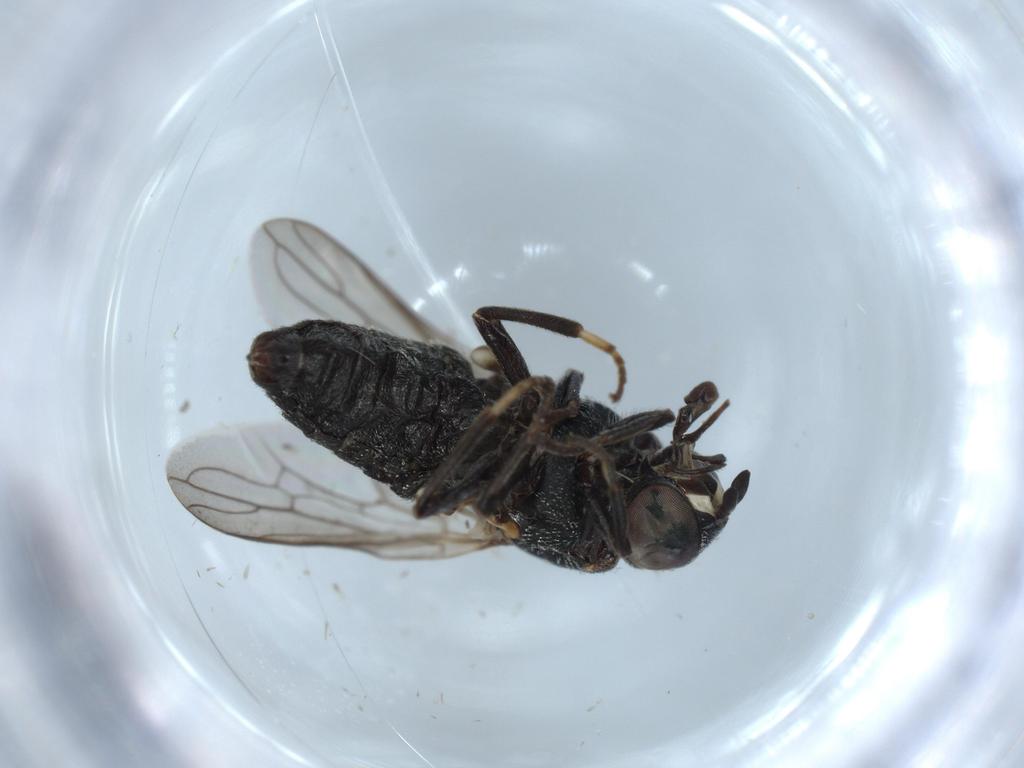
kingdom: Animalia
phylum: Arthropoda
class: Insecta
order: Diptera
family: Scenopinidae
